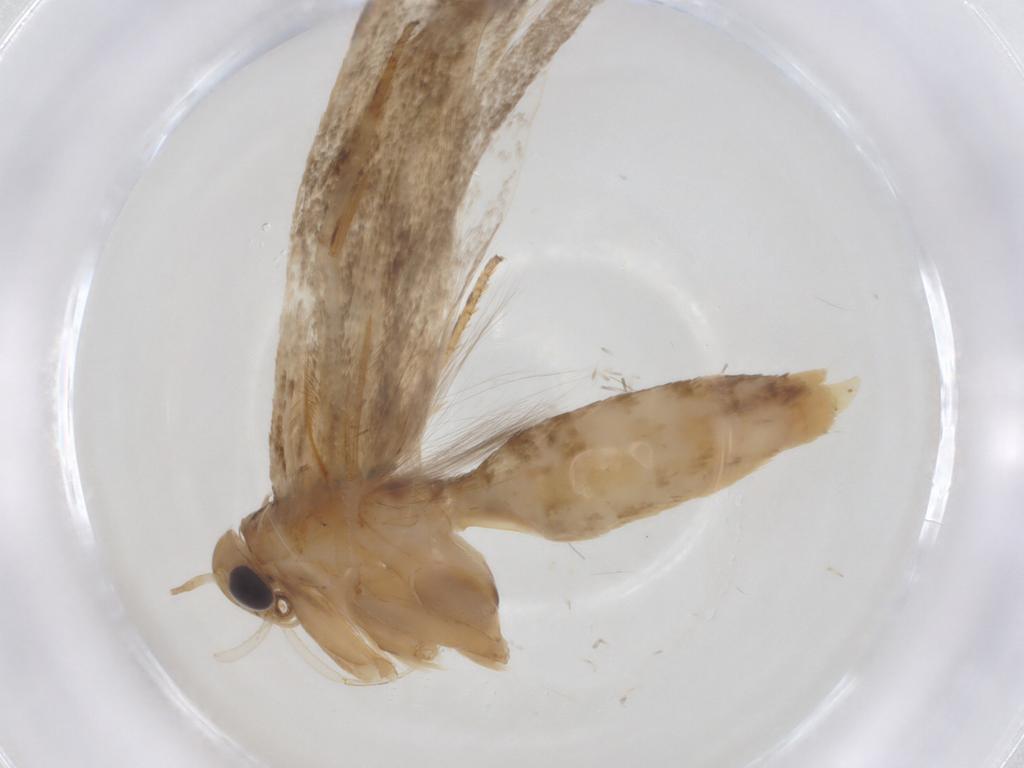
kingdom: Animalia
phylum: Arthropoda
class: Insecta
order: Lepidoptera
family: Gelechiidae
